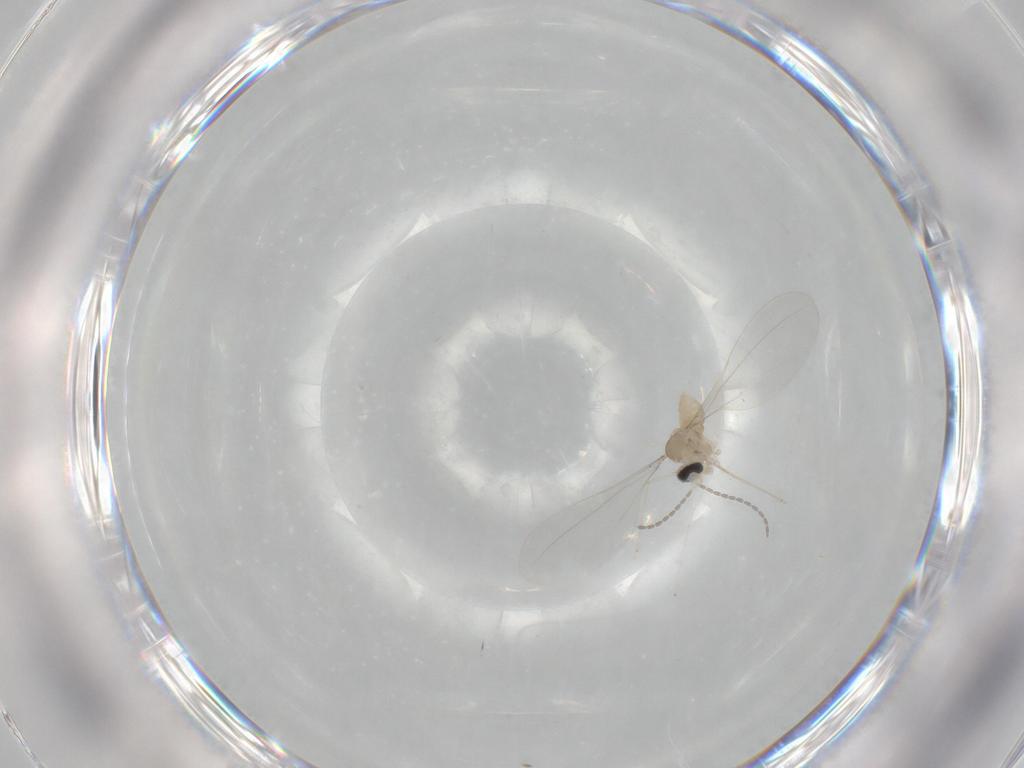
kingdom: Animalia
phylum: Arthropoda
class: Insecta
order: Diptera
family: Cecidomyiidae
